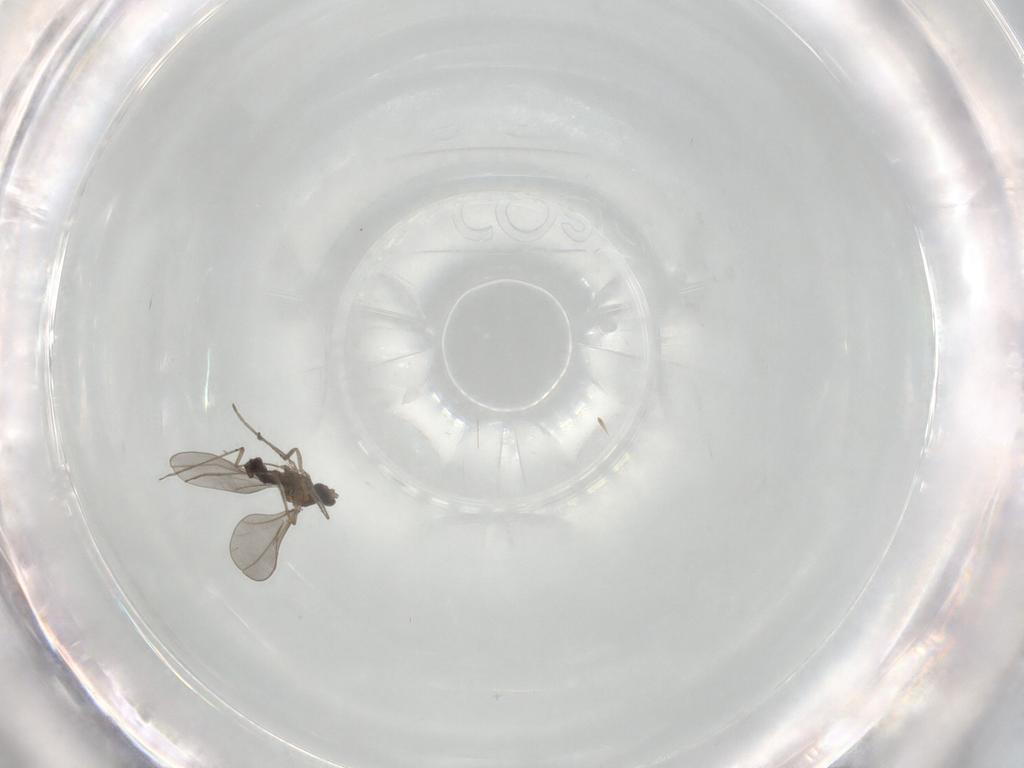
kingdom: Animalia
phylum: Arthropoda
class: Insecta
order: Diptera
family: Cecidomyiidae
